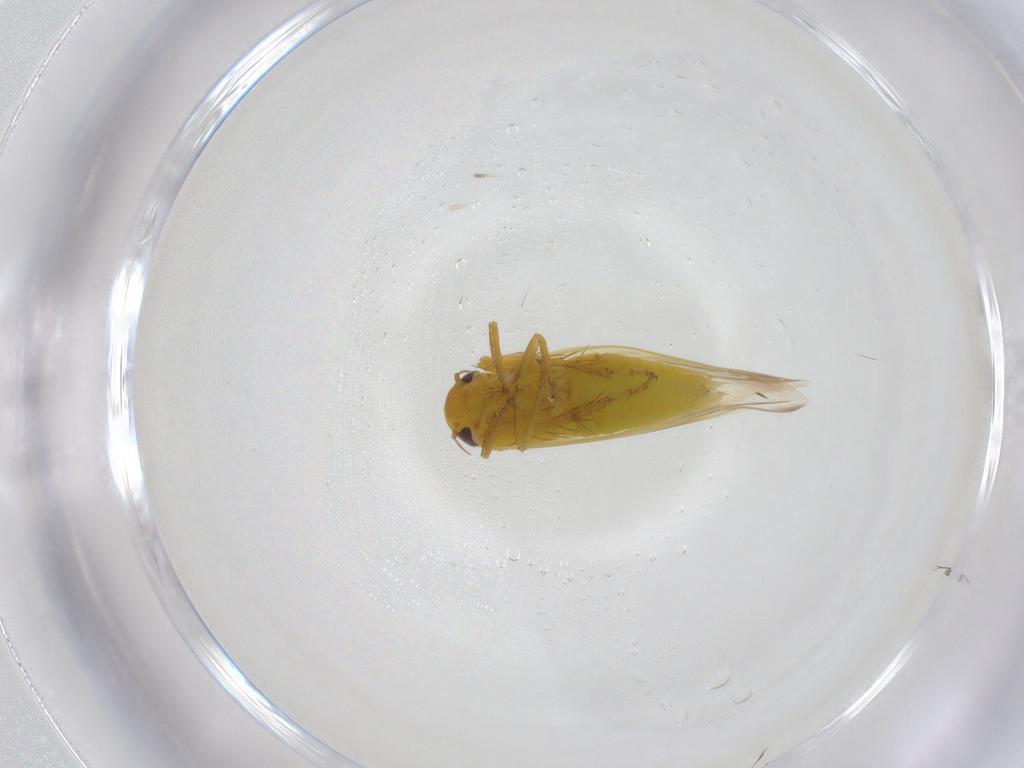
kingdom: Animalia
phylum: Arthropoda
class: Insecta
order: Hemiptera
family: Cicadellidae
